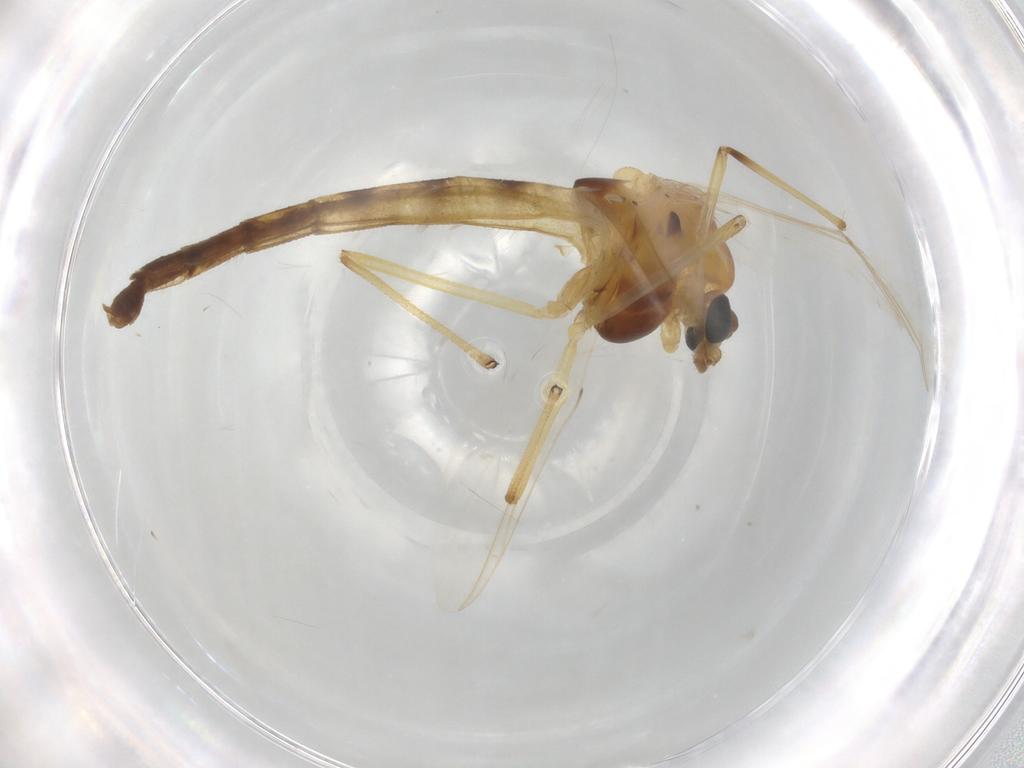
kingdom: Animalia
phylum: Arthropoda
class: Insecta
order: Diptera
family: Chironomidae
